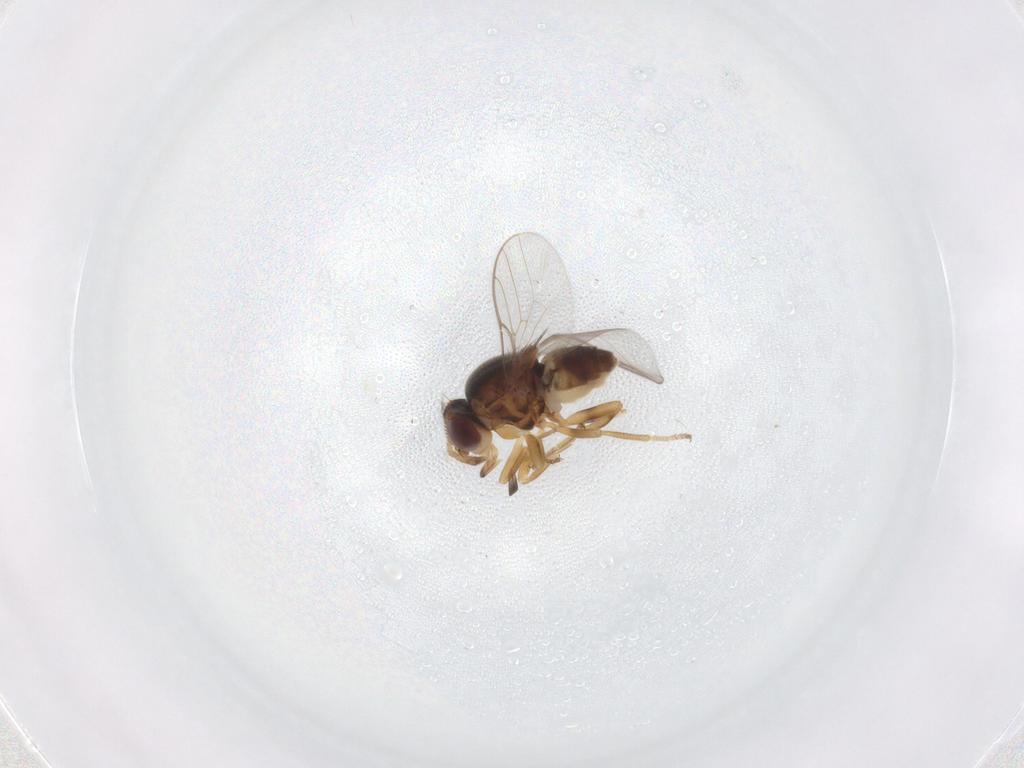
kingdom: Animalia
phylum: Arthropoda
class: Insecta
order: Diptera
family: Chloropidae
